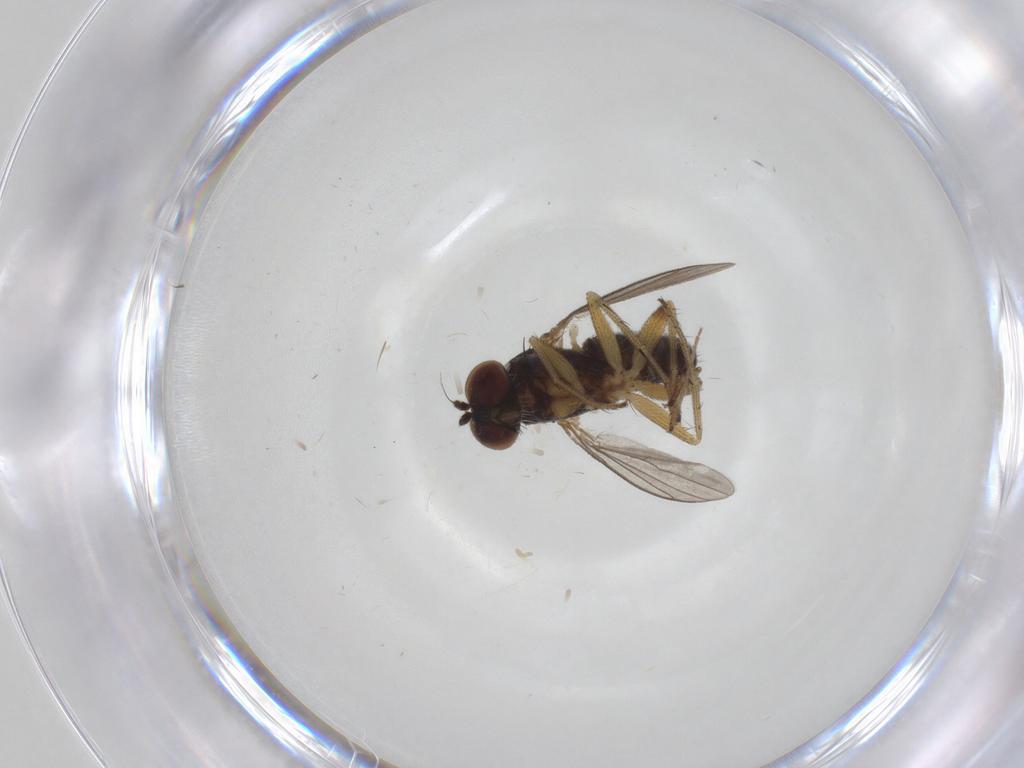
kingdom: Animalia
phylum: Arthropoda
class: Insecta
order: Diptera
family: Chironomidae
